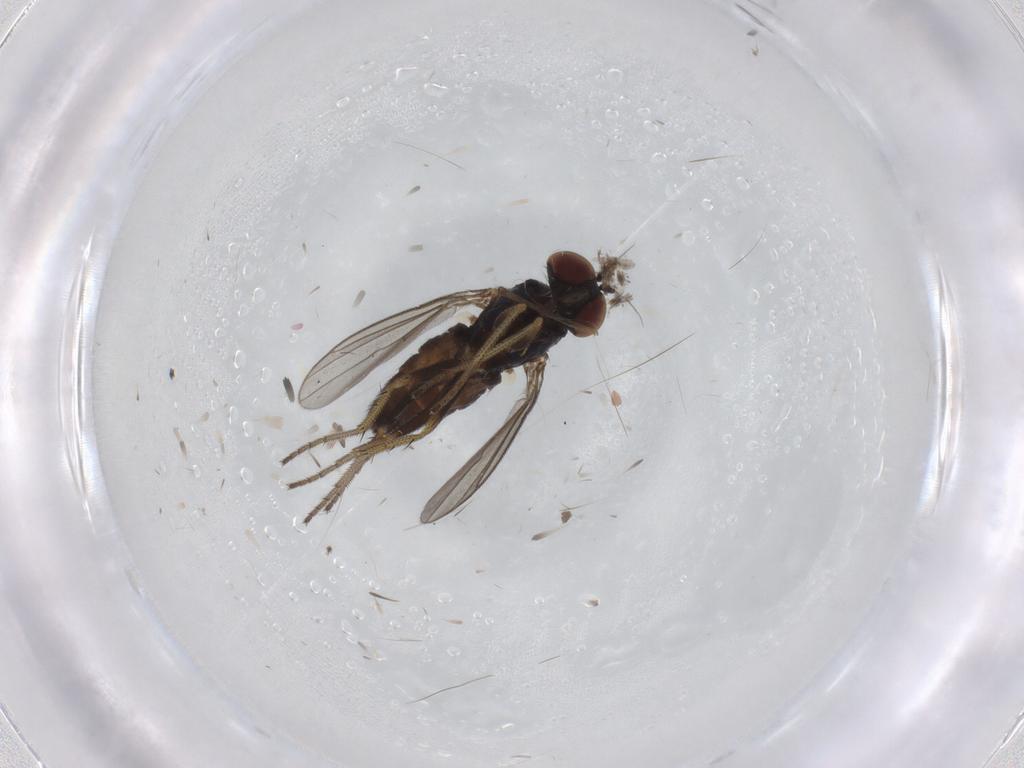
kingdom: Animalia
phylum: Arthropoda
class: Insecta
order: Diptera
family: Dolichopodidae
